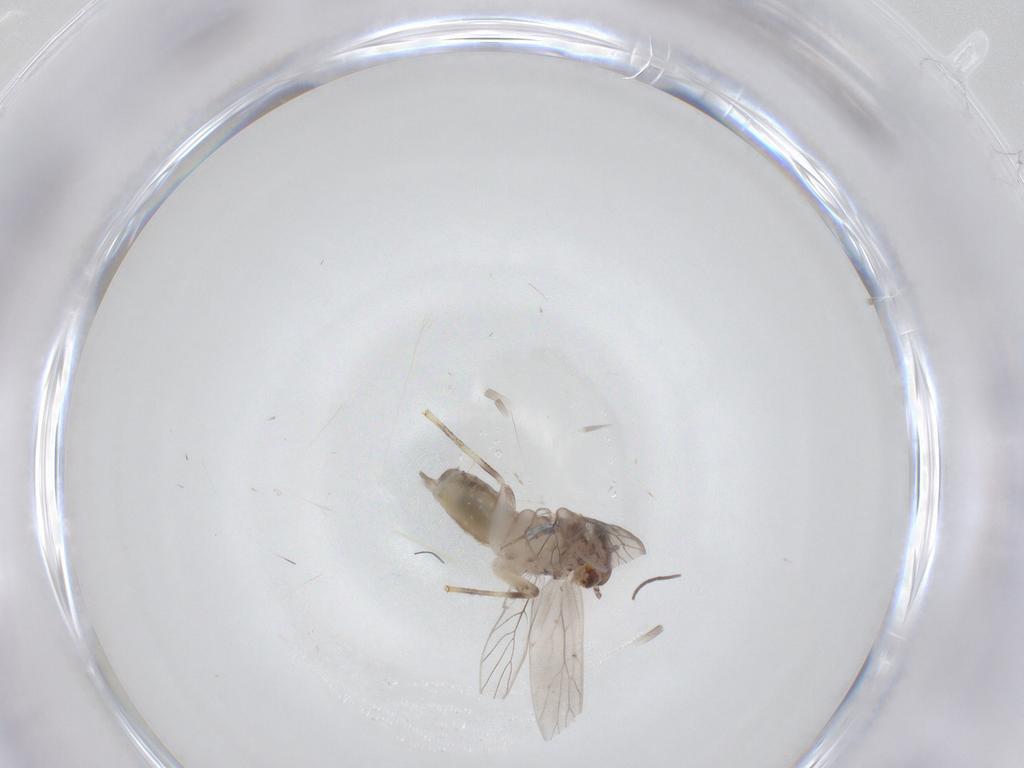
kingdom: Animalia
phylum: Arthropoda
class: Insecta
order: Psocodea
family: Lepidopsocidae
